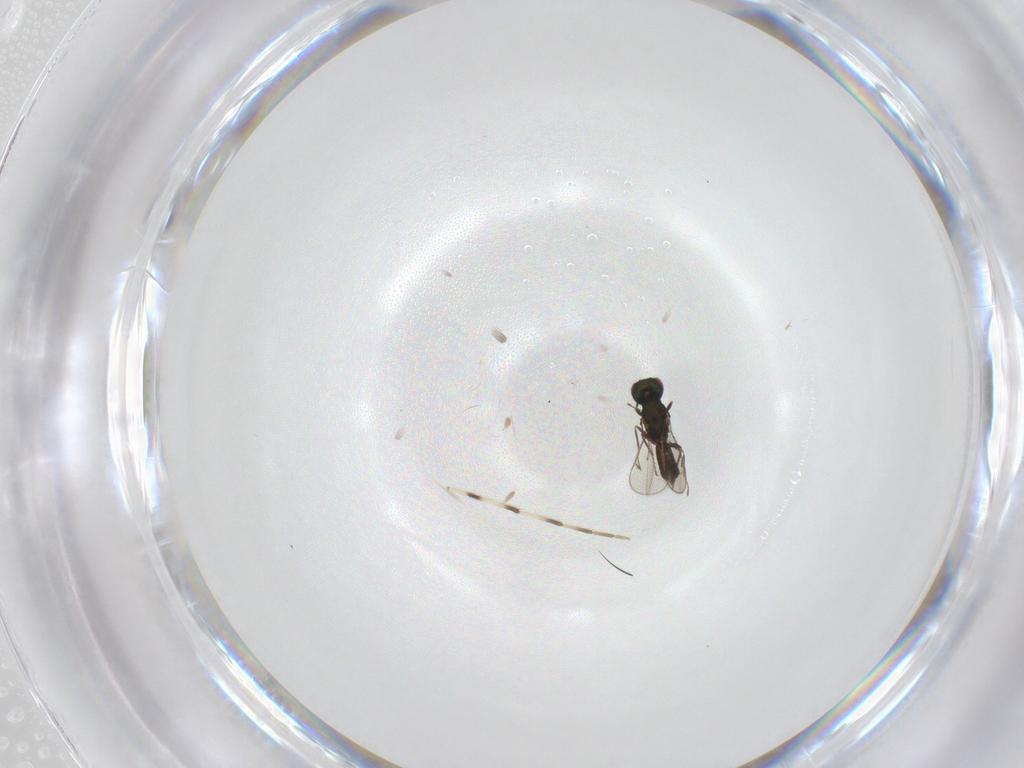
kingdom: Animalia
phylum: Arthropoda
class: Insecta
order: Hymenoptera
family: Eulophidae
